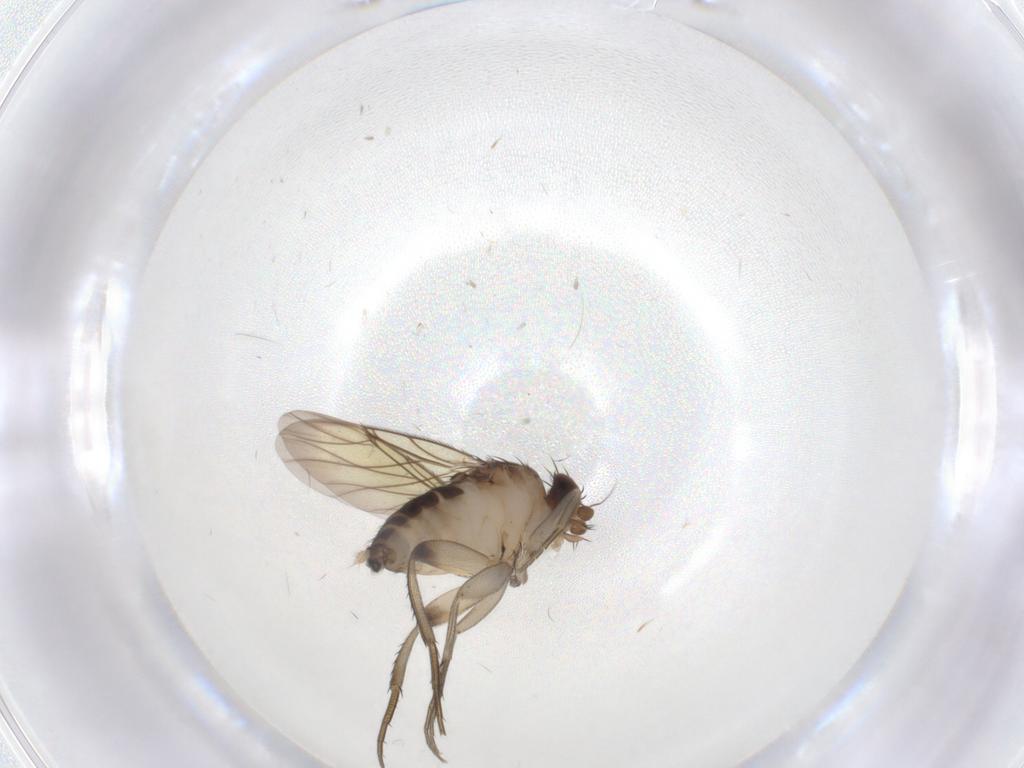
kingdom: Animalia
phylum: Arthropoda
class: Insecta
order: Diptera
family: Phoridae
